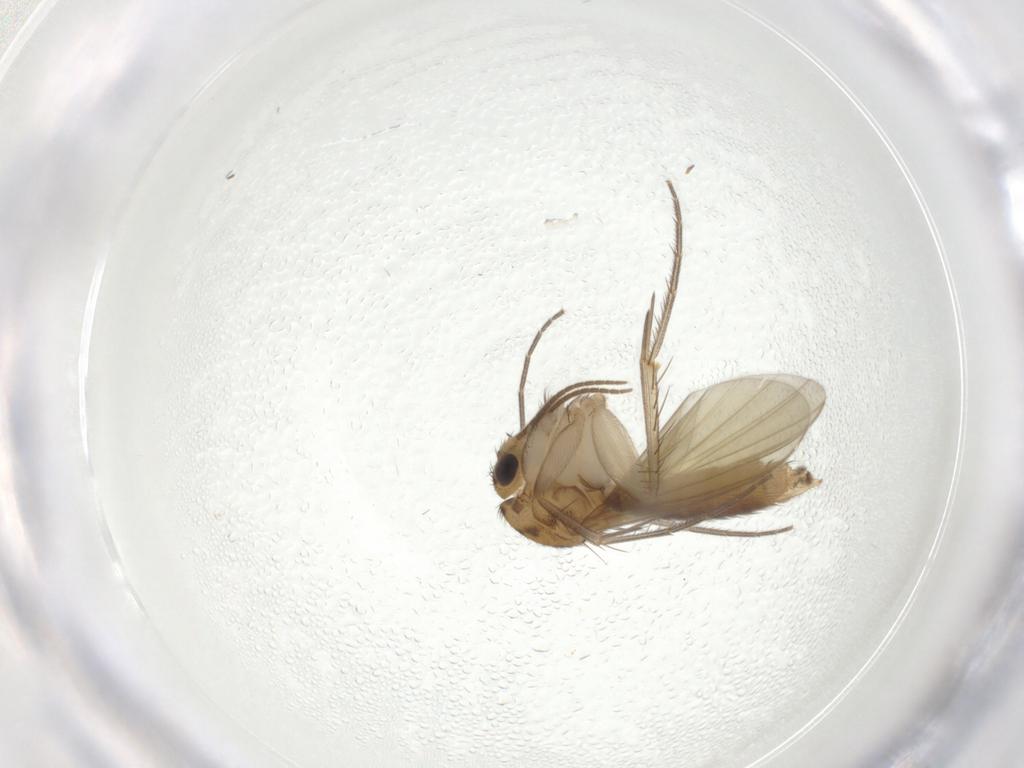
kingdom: Animalia
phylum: Arthropoda
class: Insecta
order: Diptera
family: Mycetophilidae
